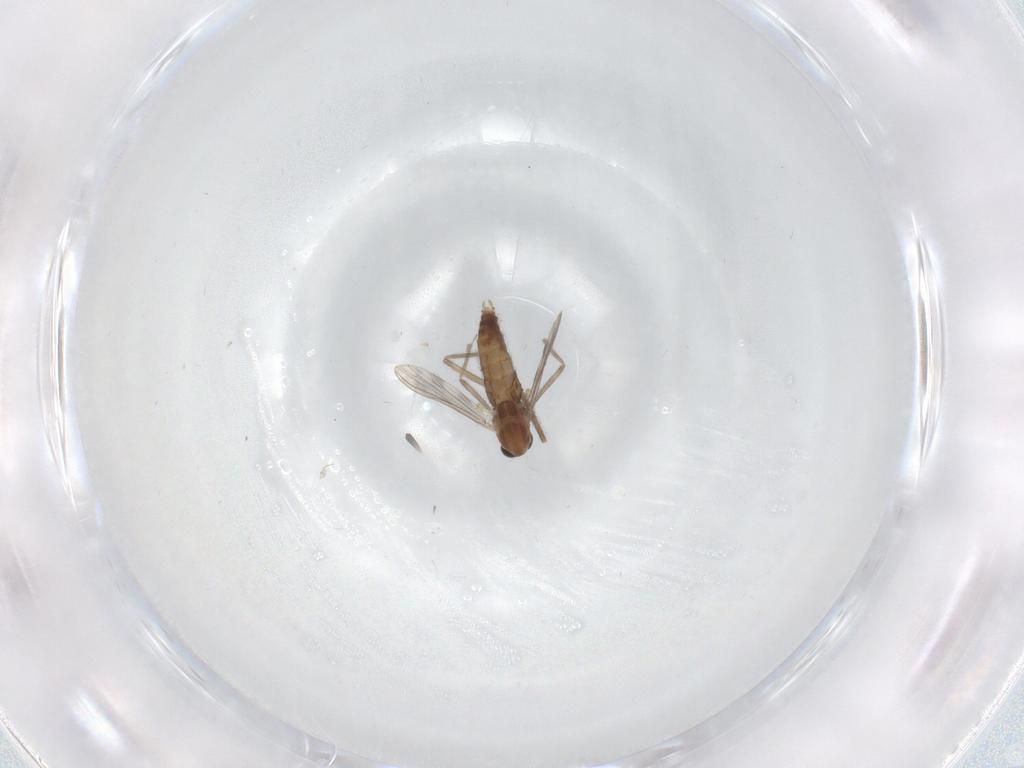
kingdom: Animalia
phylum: Arthropoda
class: Insecta
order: Diptera
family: Chironomidae
